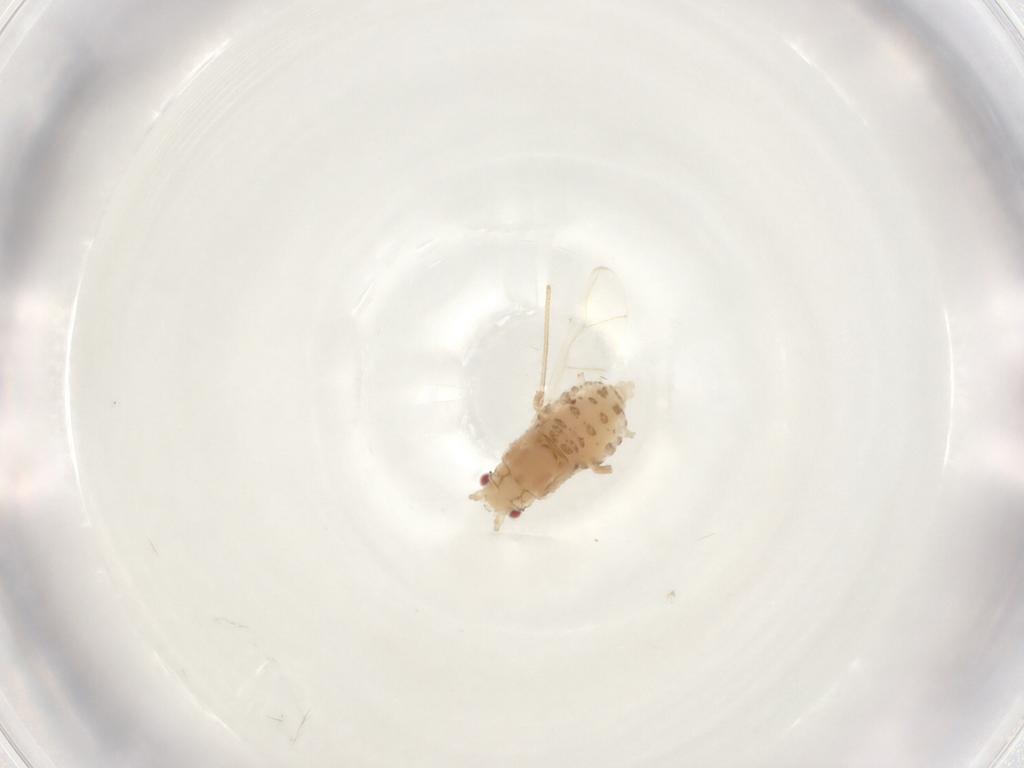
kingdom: Animalia
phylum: Arthropoda
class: Insecta
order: Hemiptera
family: Aphididae
